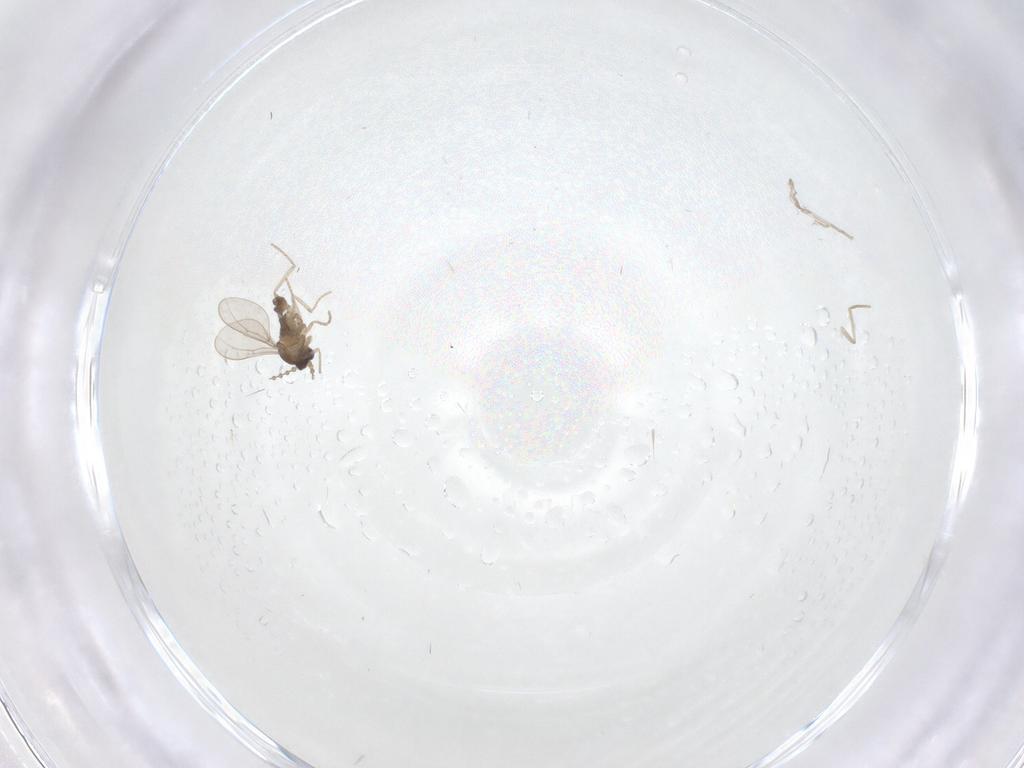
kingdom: Animalia
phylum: Arthropoda
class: Insecta
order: Diptera
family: Cecidomyiidae
